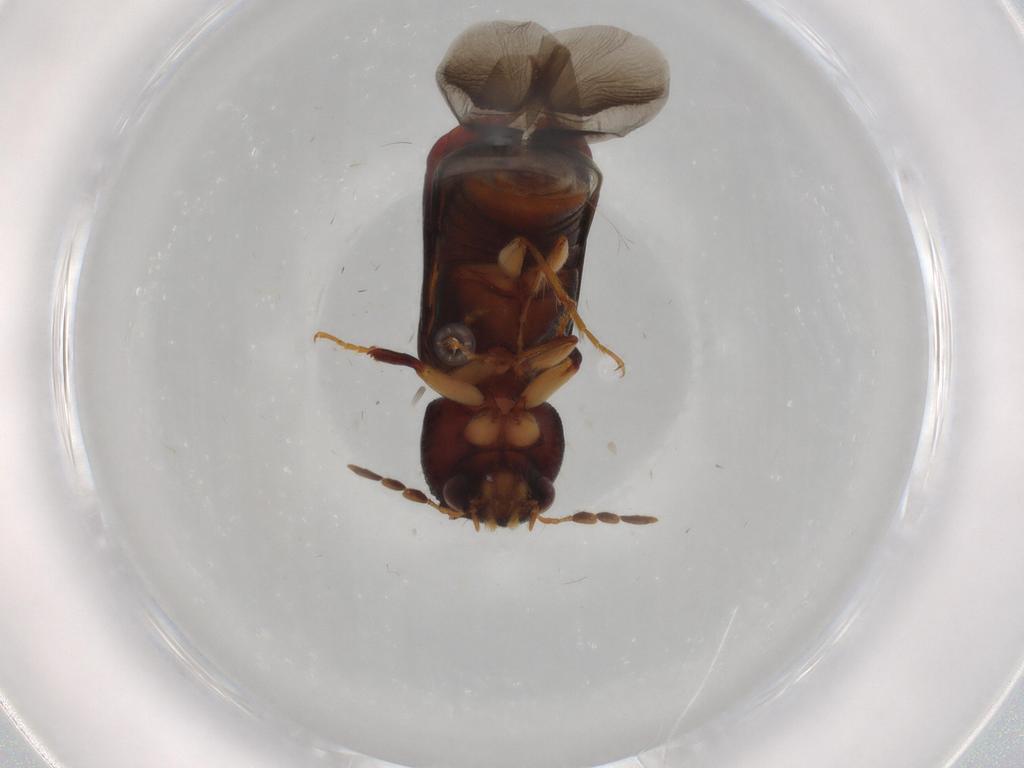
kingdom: Animalia
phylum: Arthropoda
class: Insecta
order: Coleoptera
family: Bostrichidae
